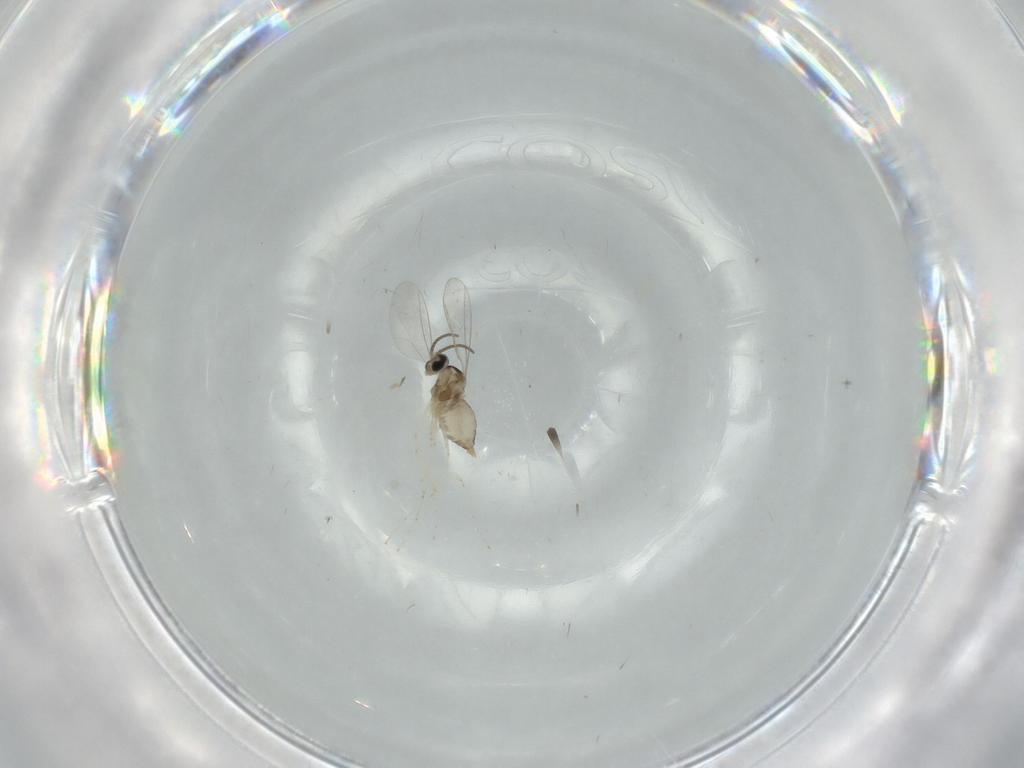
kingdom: Animalia
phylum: Arthropoda
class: Insecta
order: Diptera
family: Cecidomyiidae
